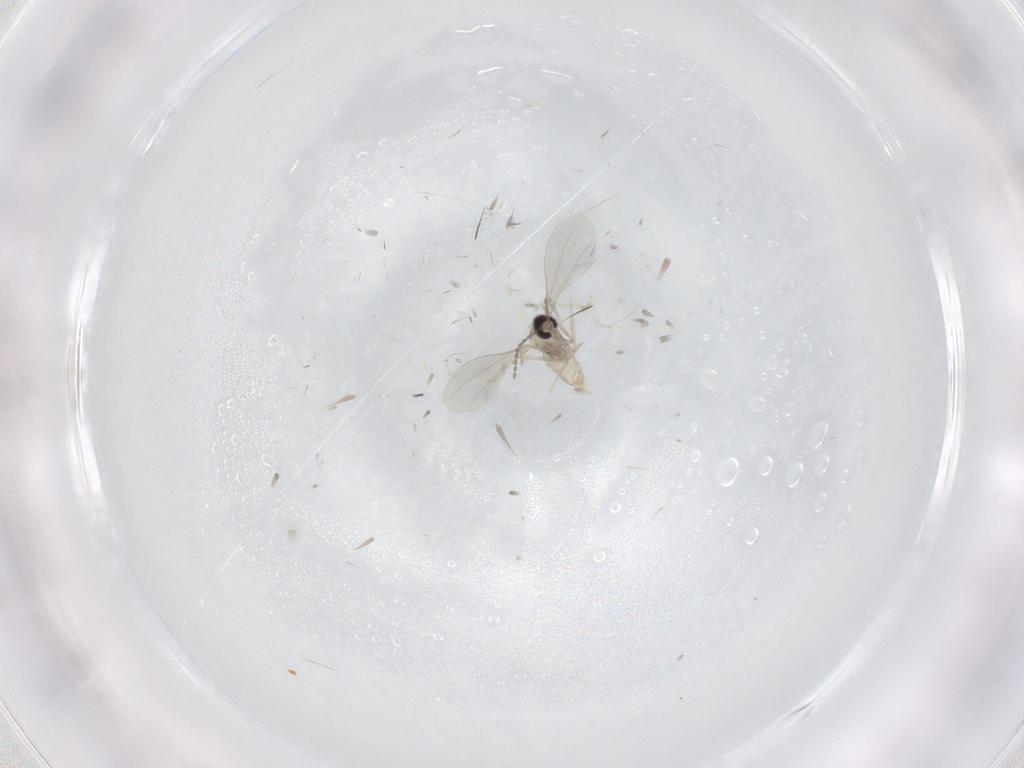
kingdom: Animalia
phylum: Arthropoda
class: Insecta
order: Diptera
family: Cecidomyiidae
